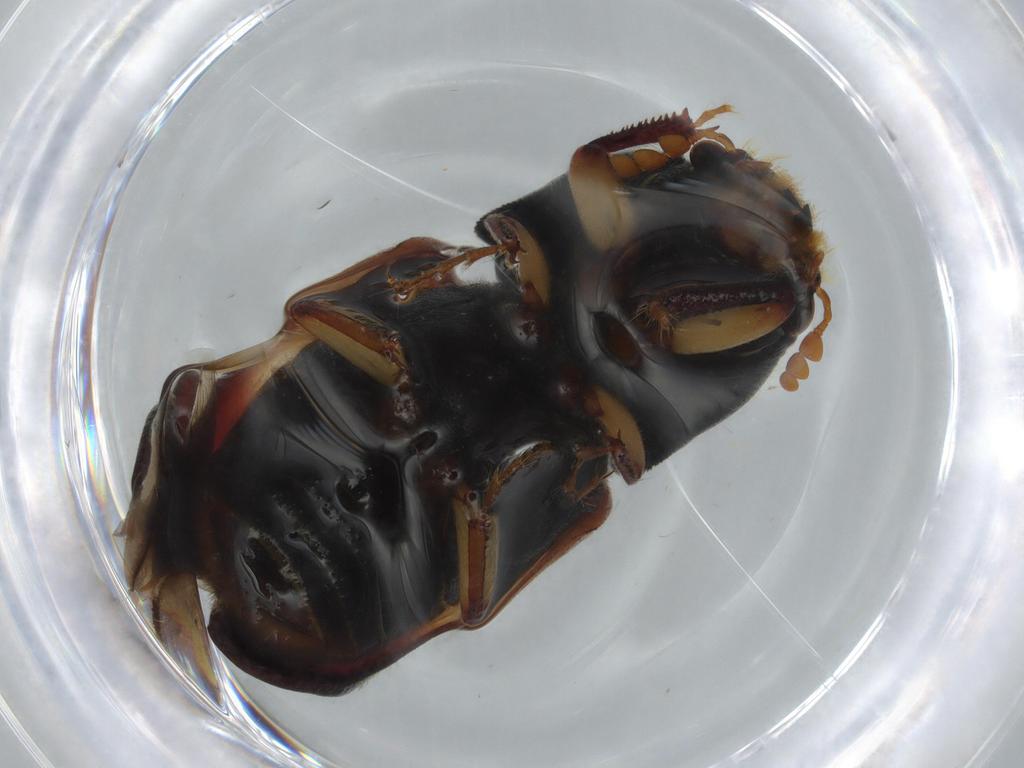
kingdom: Animalia
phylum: Arthropoda
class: Insecta
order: Coleoptera
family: Bostrichidae
